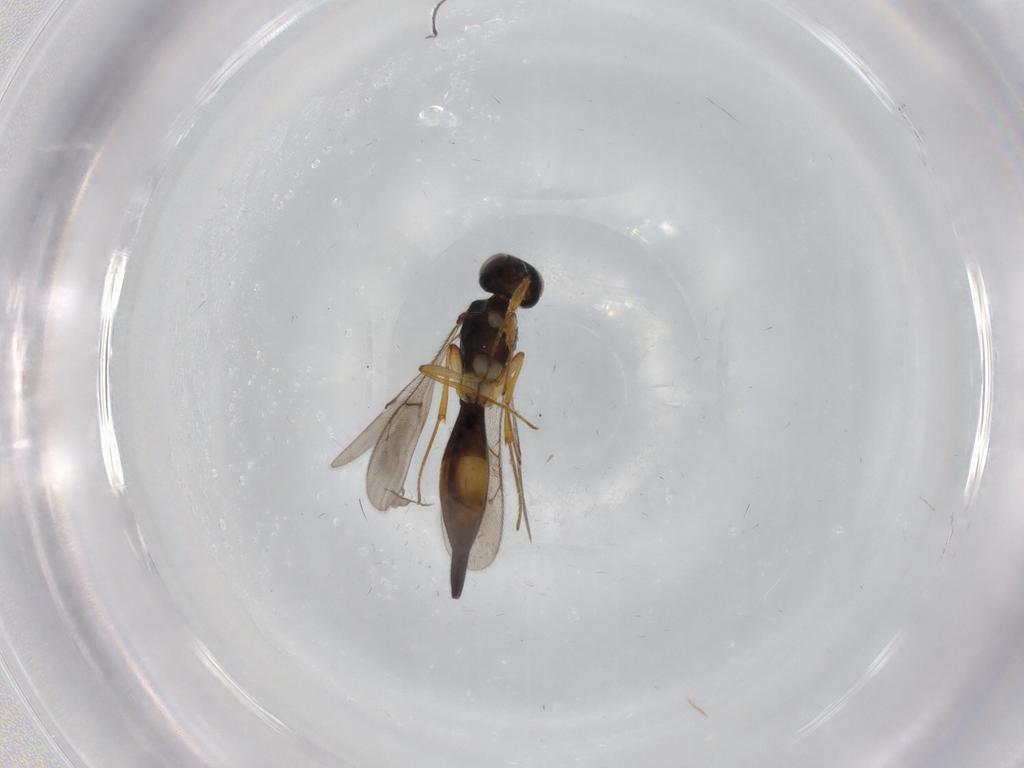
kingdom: Animalia
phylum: Arthropoda
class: Insecta
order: Hymenoptera
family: Scelionidae
